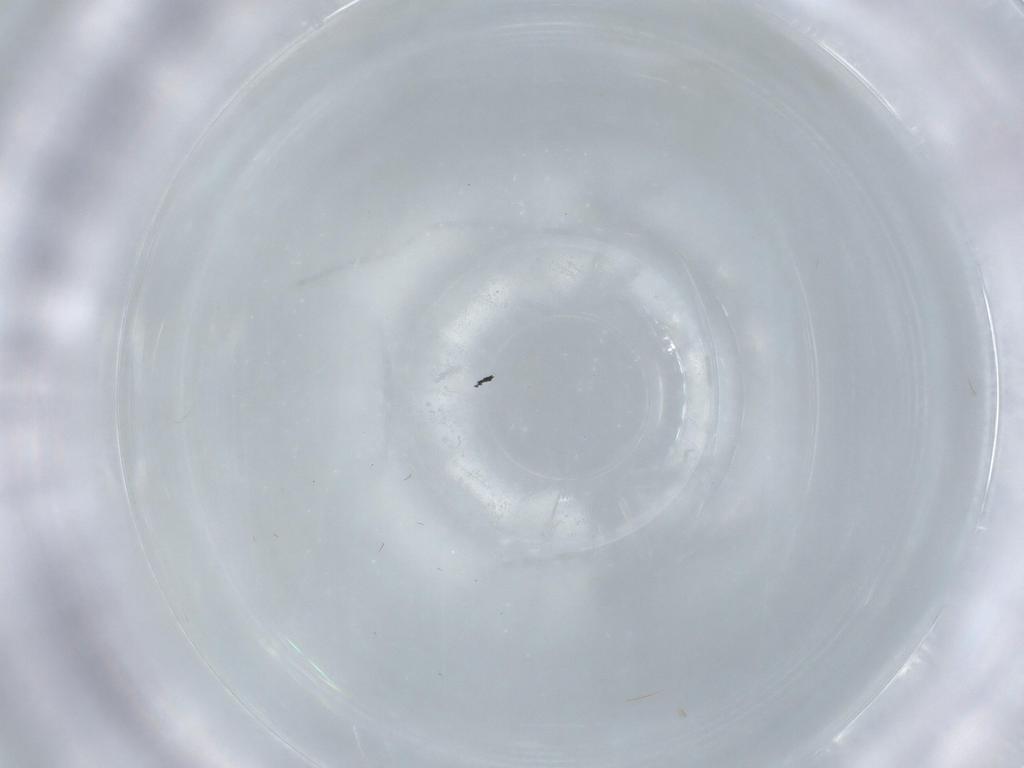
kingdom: Animalia
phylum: Arthropoda
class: Insecta
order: Diptera
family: Ceratopogonidae
